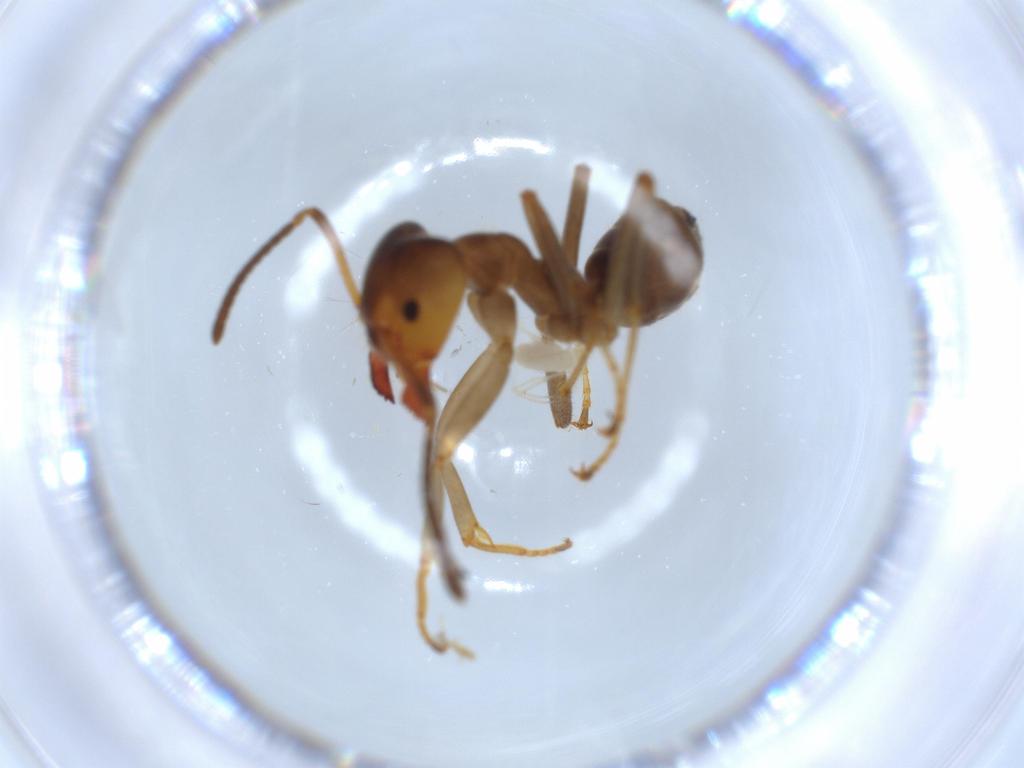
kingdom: Animalia
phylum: Arthropoda
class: Insecta
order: Hymenoptera
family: Formicidae
